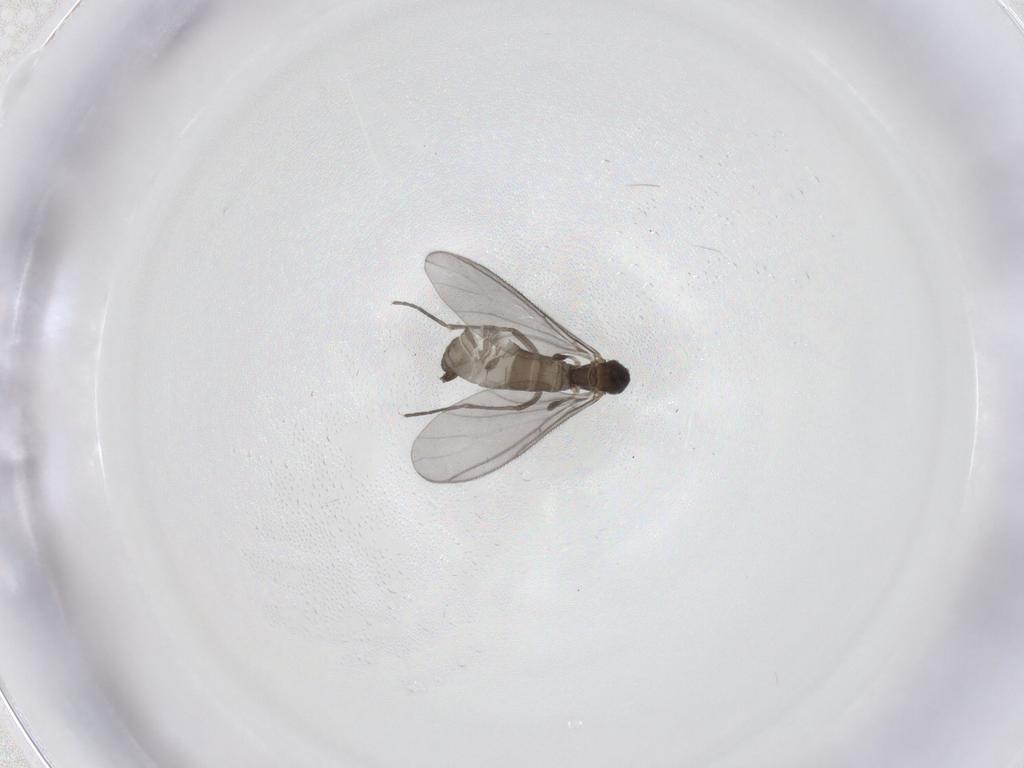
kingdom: Animalia
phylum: Arthropoda
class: Insecta
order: Diptera
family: Sciaridae
